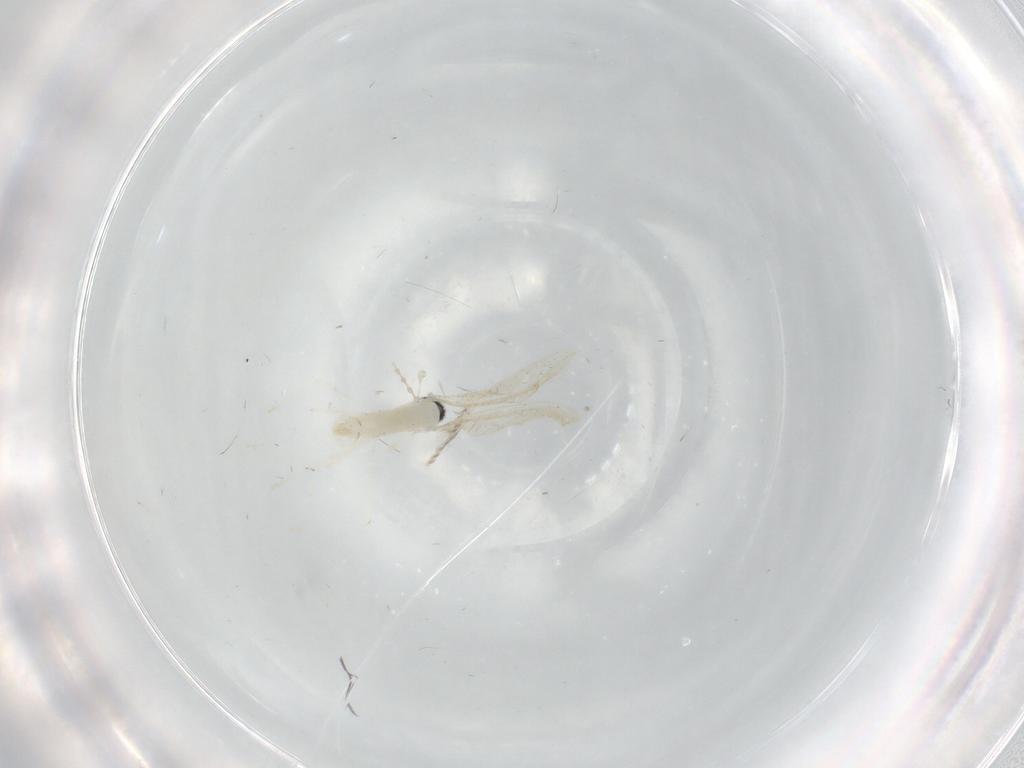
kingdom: Animalia
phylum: Arthropoda
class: Insecta
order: Diptera
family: Cecidomyiidae
